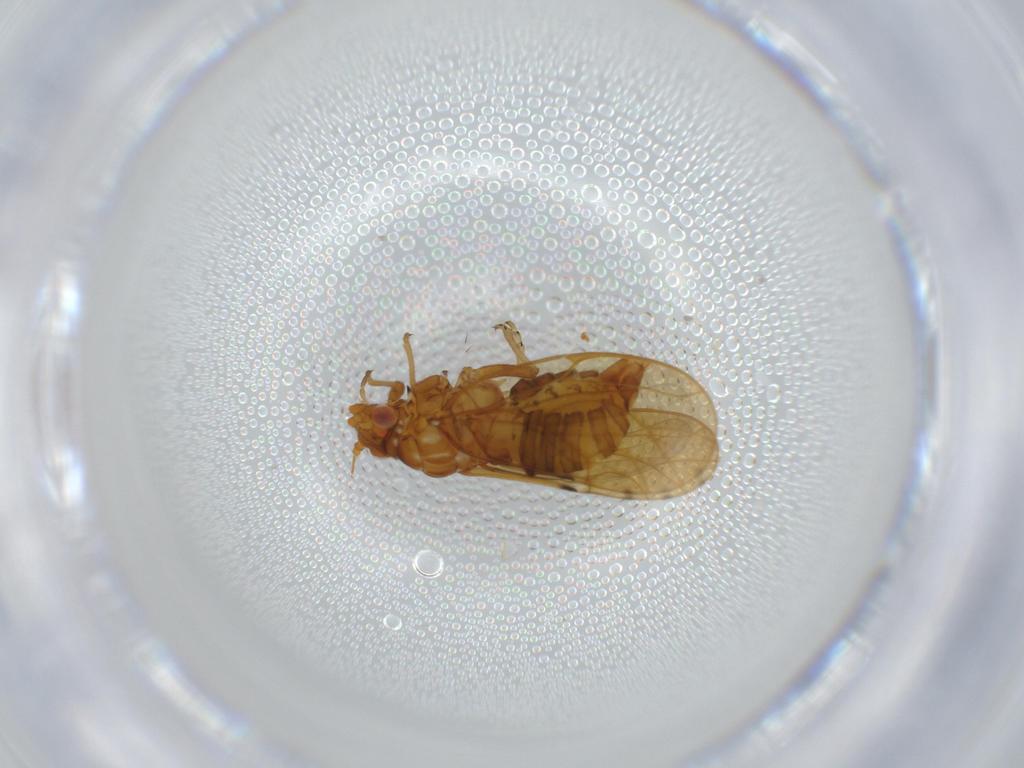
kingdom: Animalia
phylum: Arthropoda
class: Insecta
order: Hemiptera
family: Psylloidea_incertae_sedis
